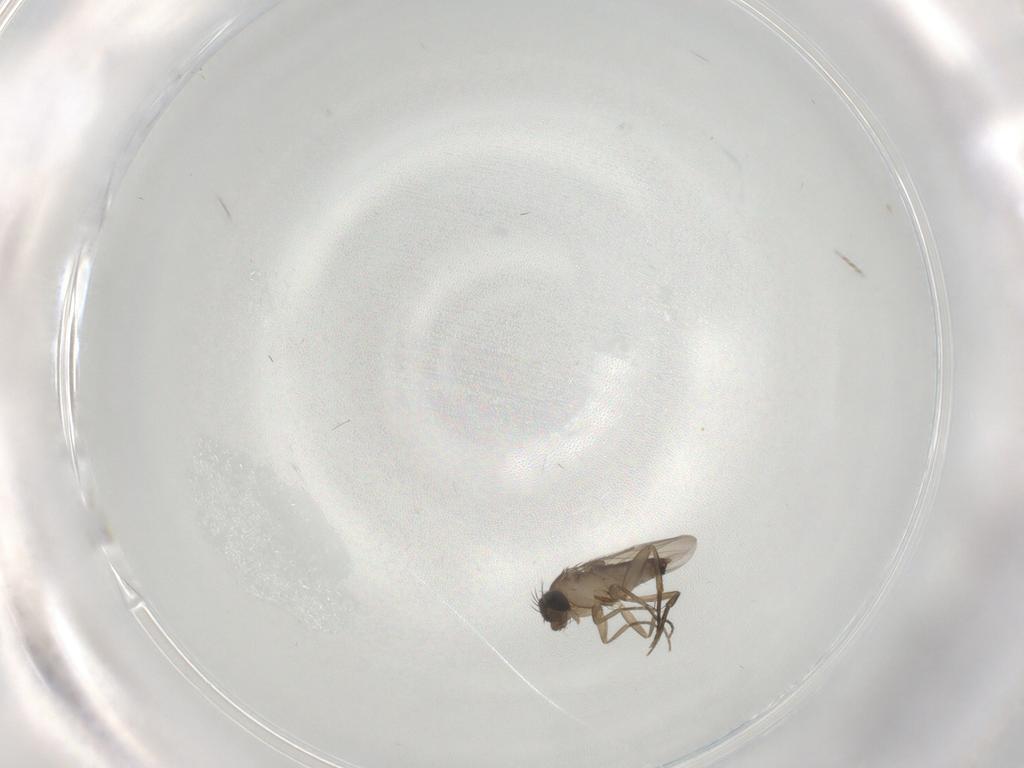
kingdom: Animalia
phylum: Arthropoda
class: Insecta
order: Diptera
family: Phoridae
